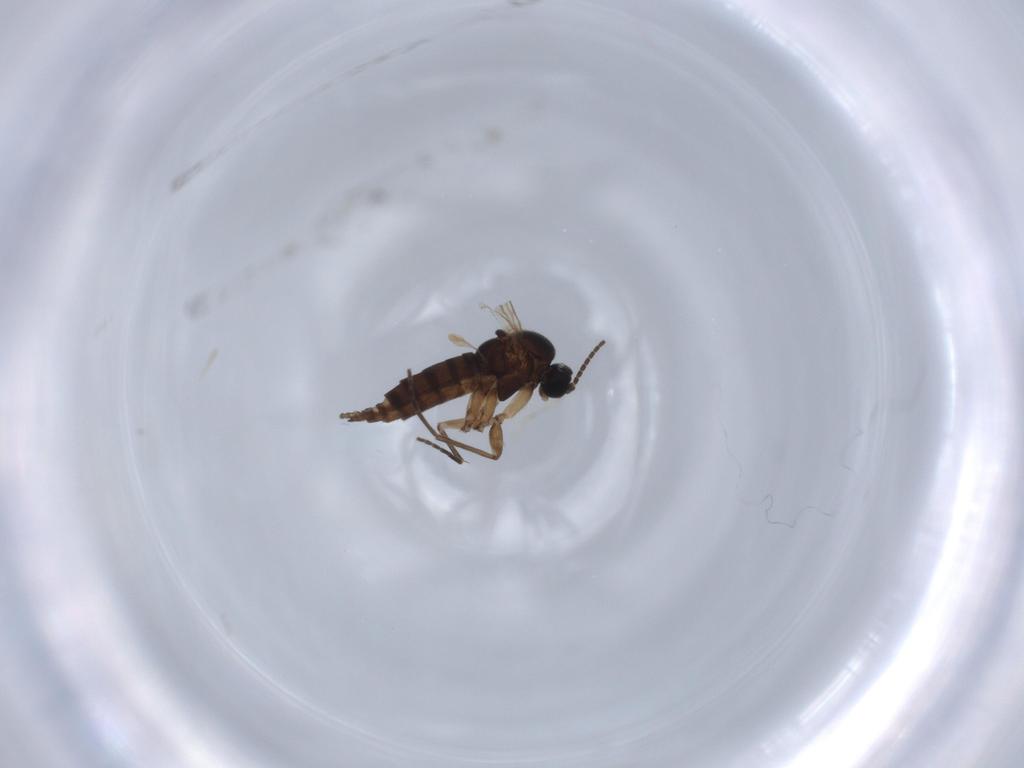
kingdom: Animalia
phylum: Arthropoda
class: Insecta
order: Diptera
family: Sciaridae
